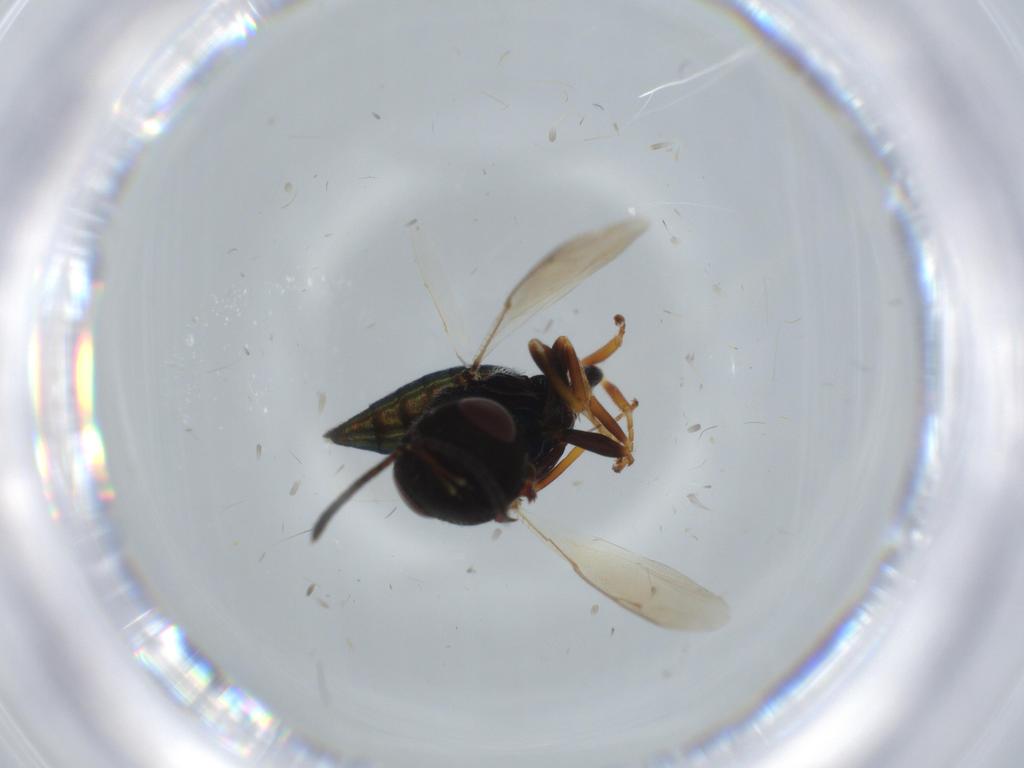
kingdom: Animalia
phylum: Arthropoda
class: Insecta
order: Hymenoptera
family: Pteromalidae
